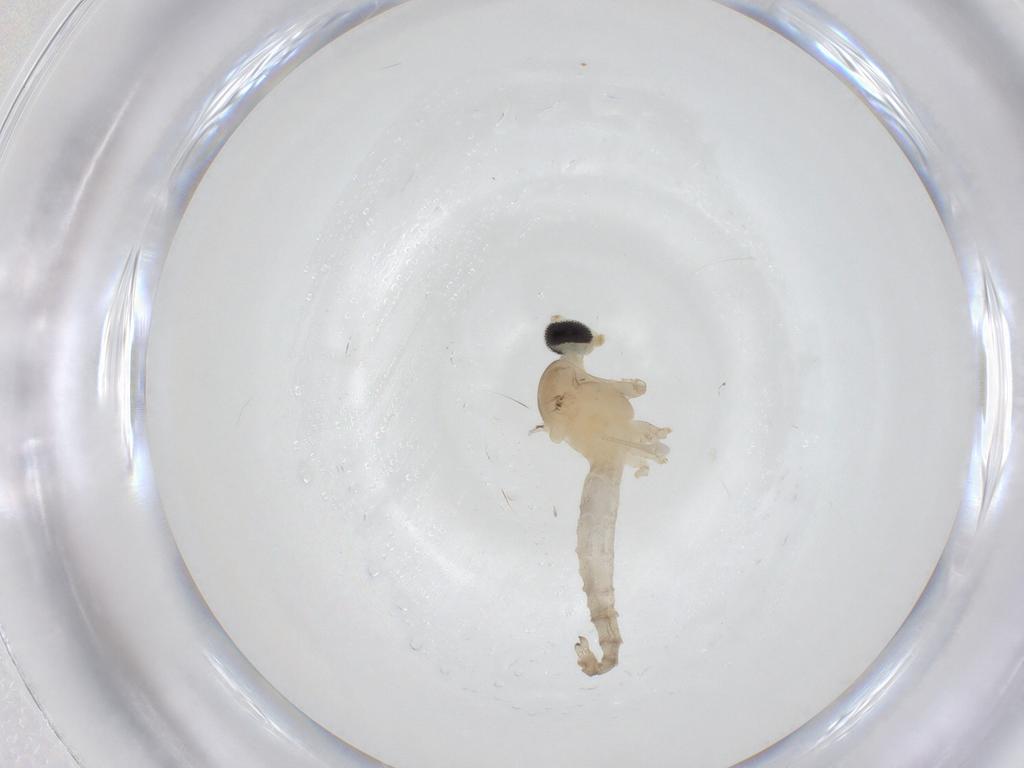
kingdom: Animalia
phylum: Arthropoda
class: Insecta
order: Diptera
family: Cecidomyiidae
